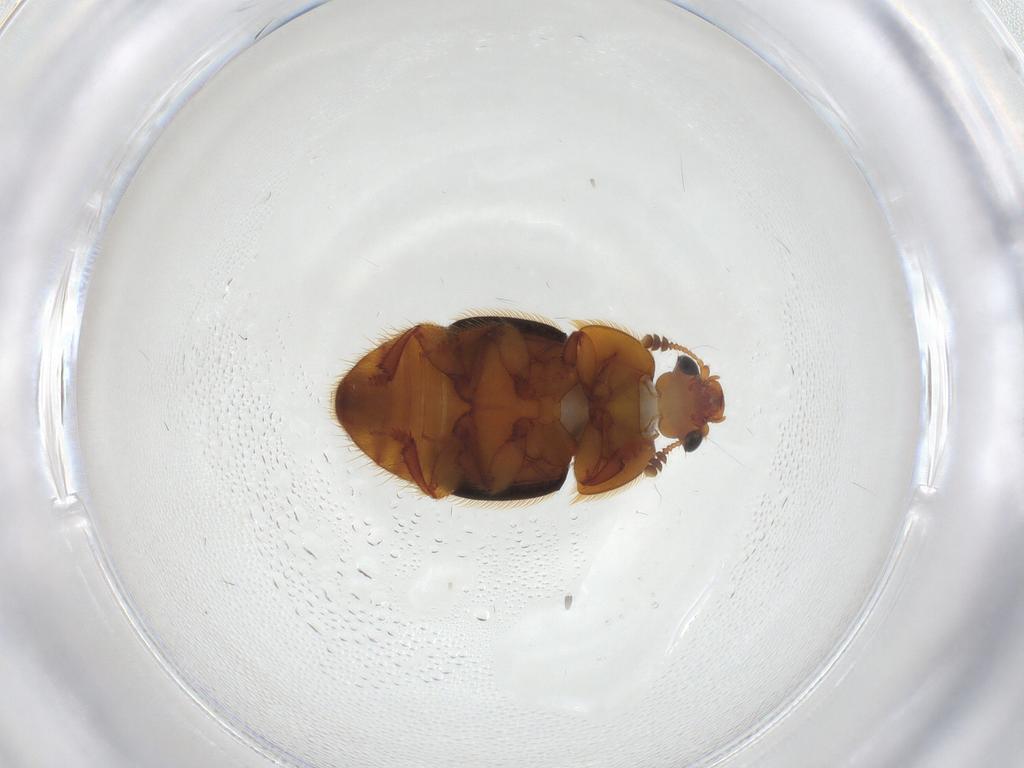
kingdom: Animalia
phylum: Arthropoda
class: Insecta
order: Coleoptera
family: Nitidulidae
